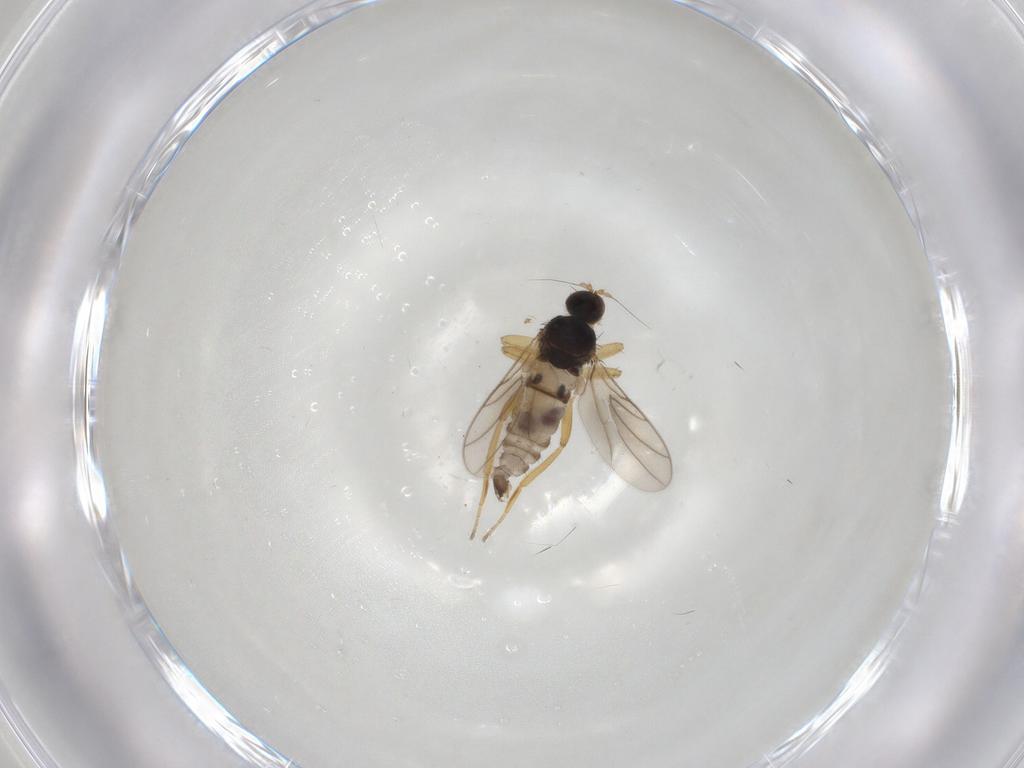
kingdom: Animalia
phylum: Arthropoda
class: Insecta
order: Diptera
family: Hybotidae
